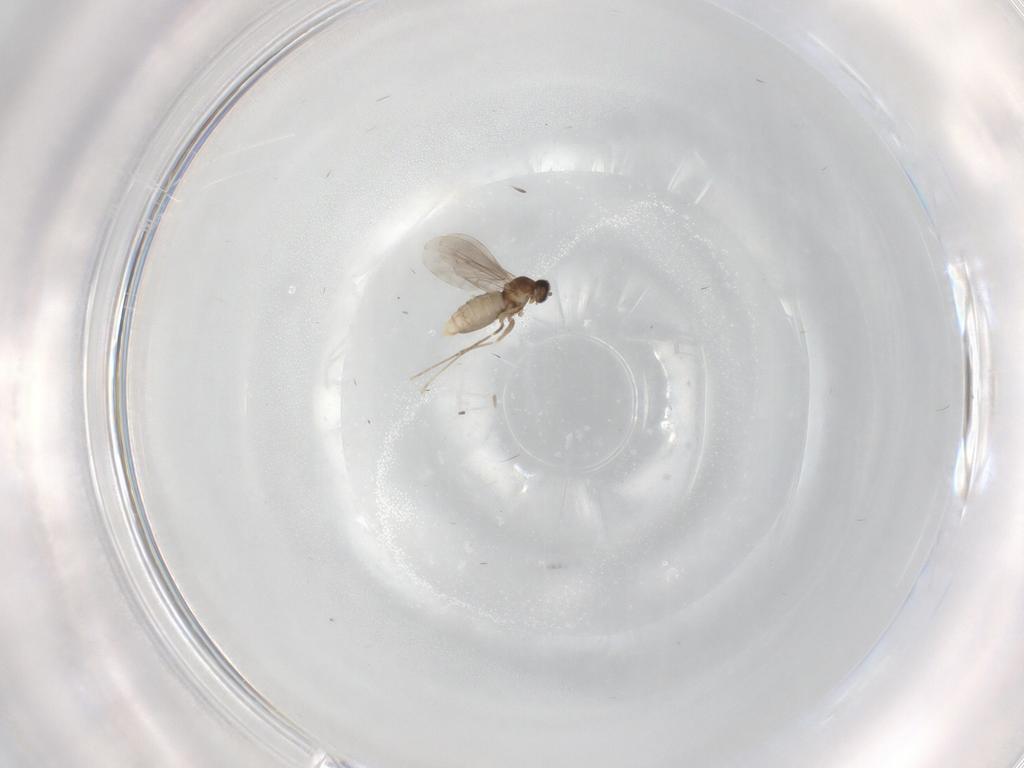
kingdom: Animalia
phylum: Arthropoda
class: Insecta
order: Diptera
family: Cecidomyiidae
